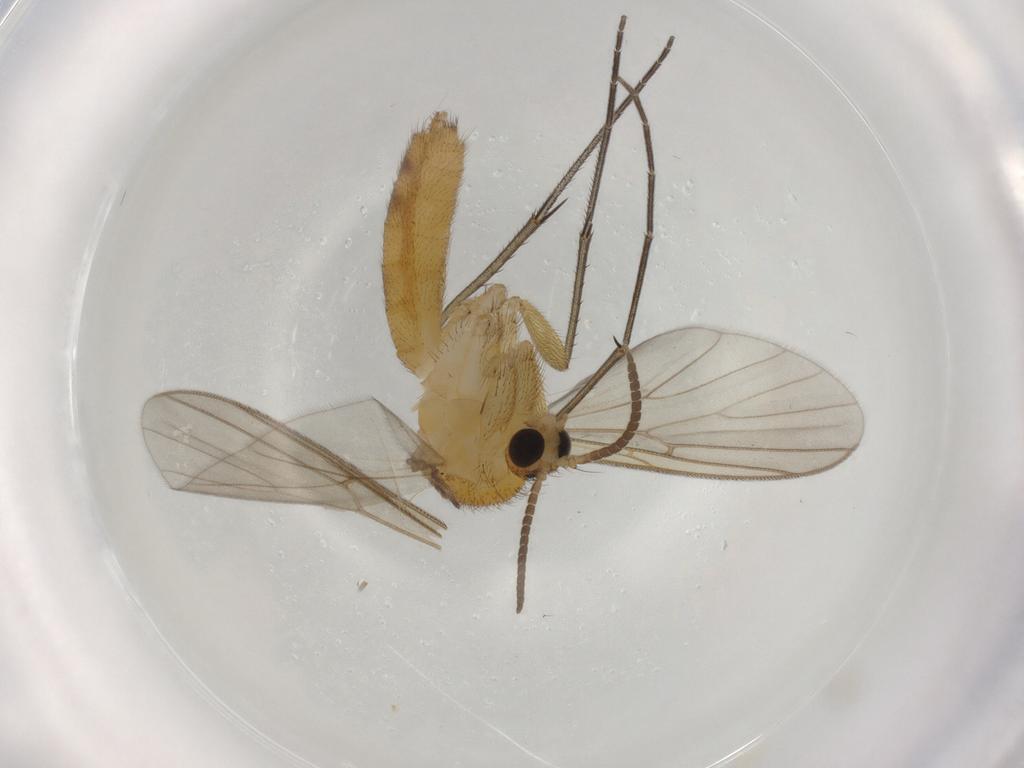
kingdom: Animalia
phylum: Arthropoda
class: Insecta
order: Diptera
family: Mycetophilidae
